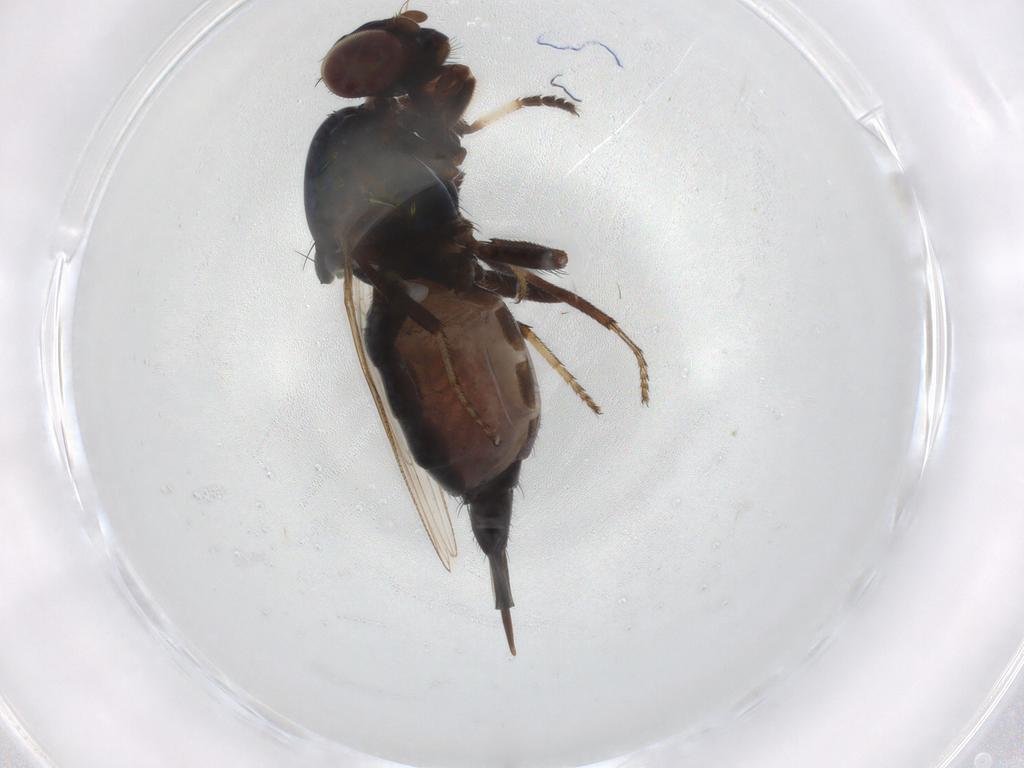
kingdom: Animalia
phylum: Arthropoda
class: Insecta
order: Diptera
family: Ulidiidae
